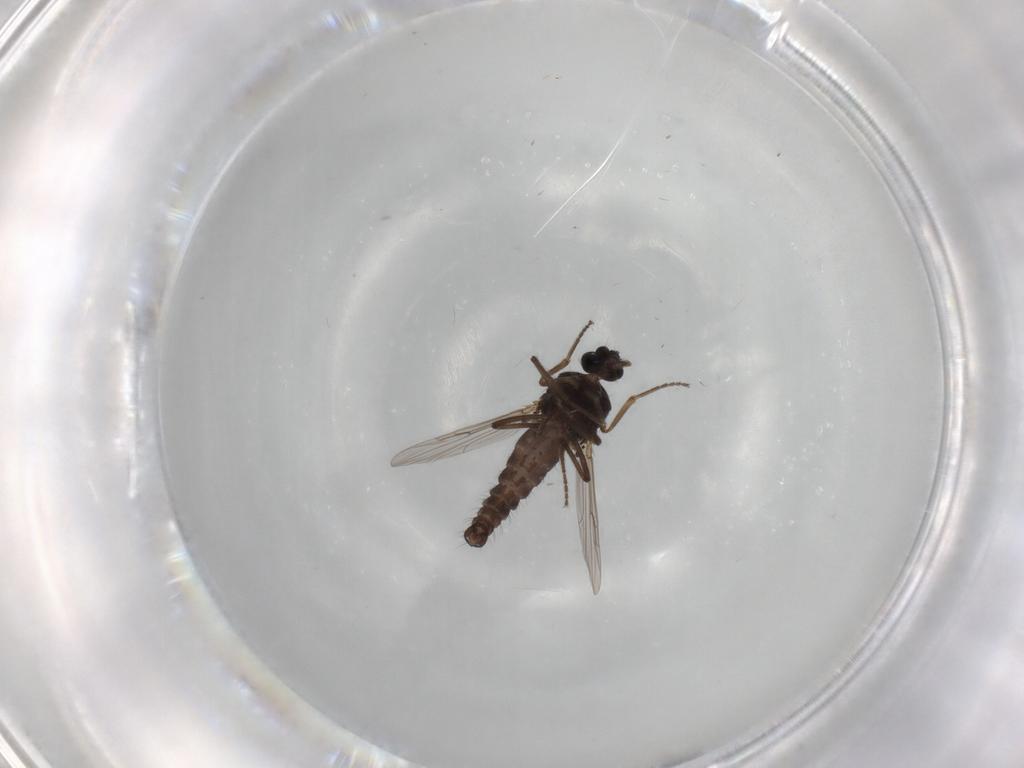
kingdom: Animalia
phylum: Arthropoda
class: Insecta
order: Diptera
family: Ceratopogonidae
